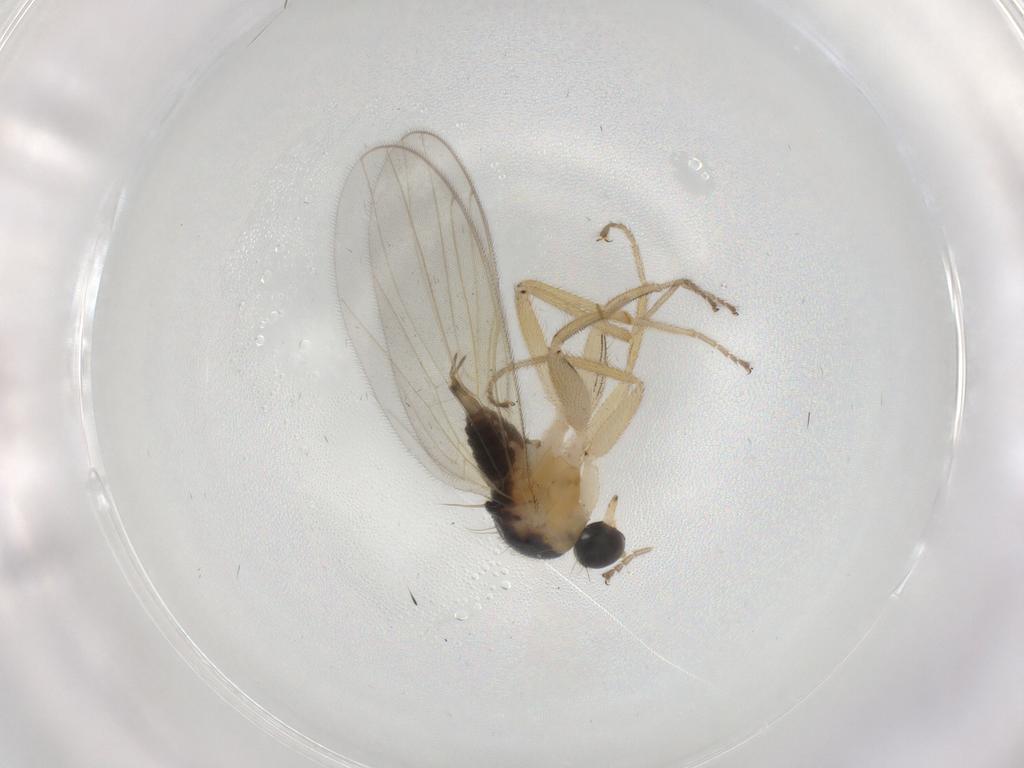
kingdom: Animalia
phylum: Arthropoda
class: Insecta
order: Diptera
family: Hybotidae
